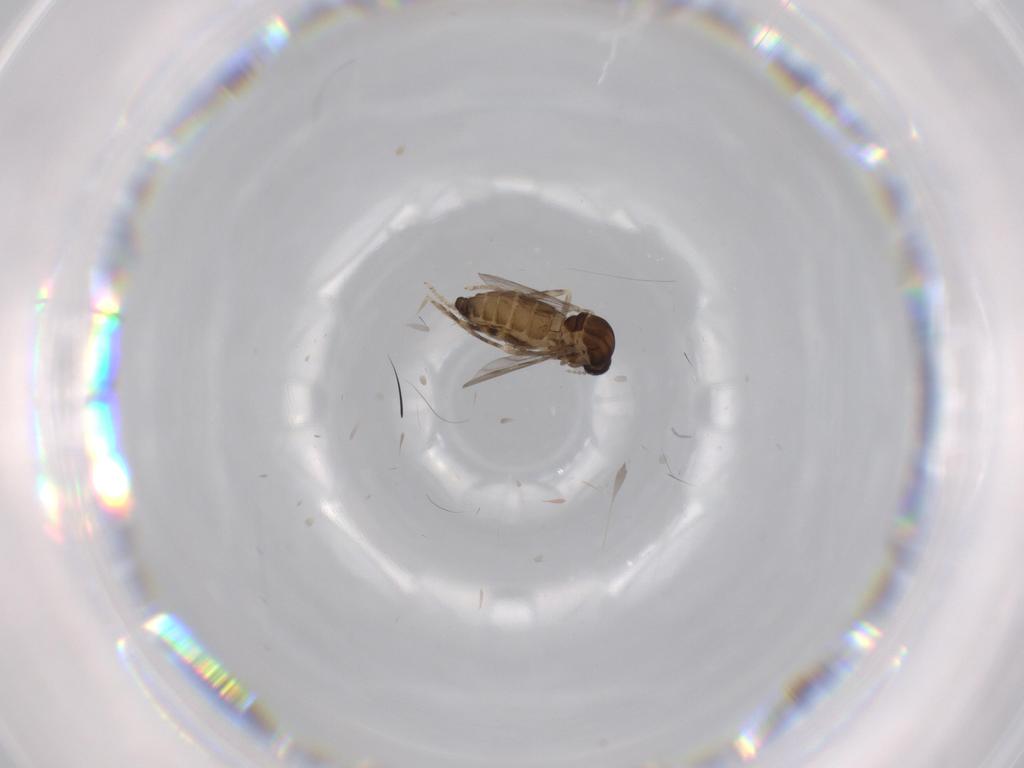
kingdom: Animalia
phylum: Arthropoda
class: Insecta
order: Diptera
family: Ceratopogonidae
